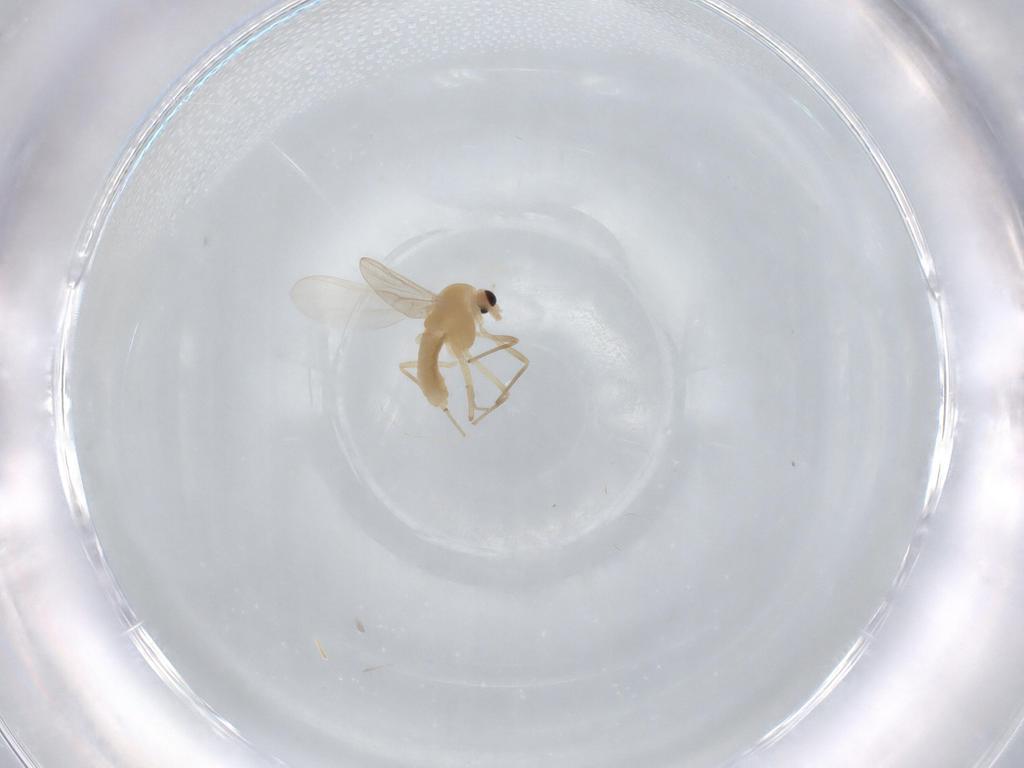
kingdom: Animalia
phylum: Arthropoda
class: Insecta
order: Diptera
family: Chironomidae
